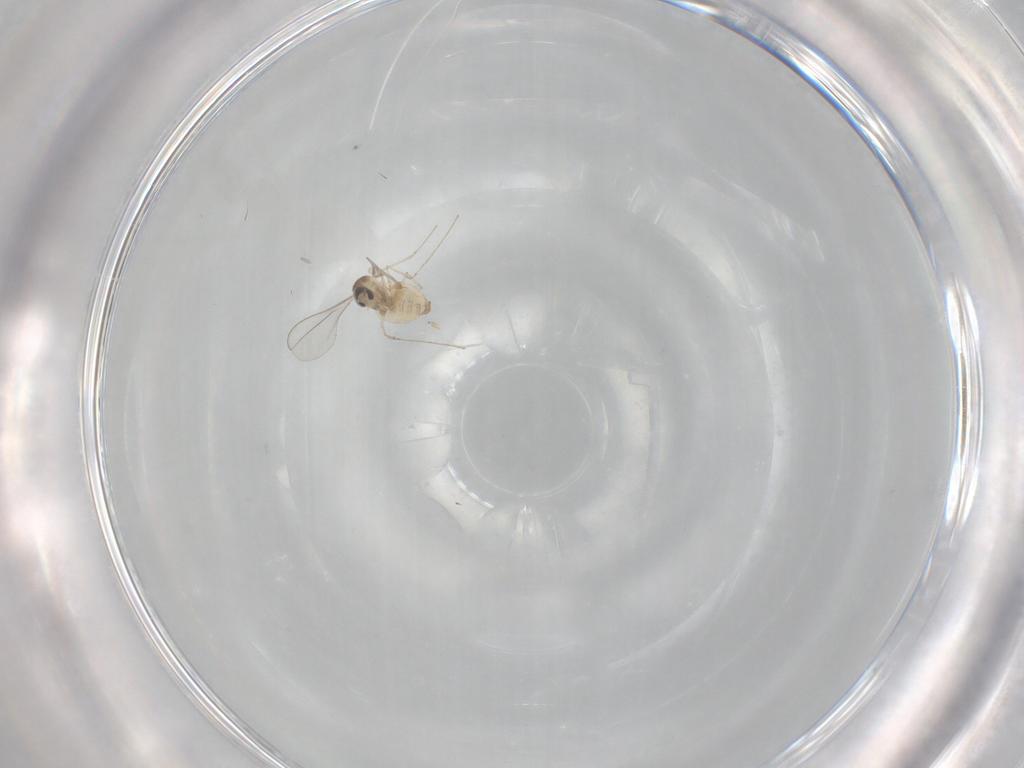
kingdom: Animalia
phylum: Arthropoda
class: Insecta
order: Diptera
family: Cecidomyiidae
